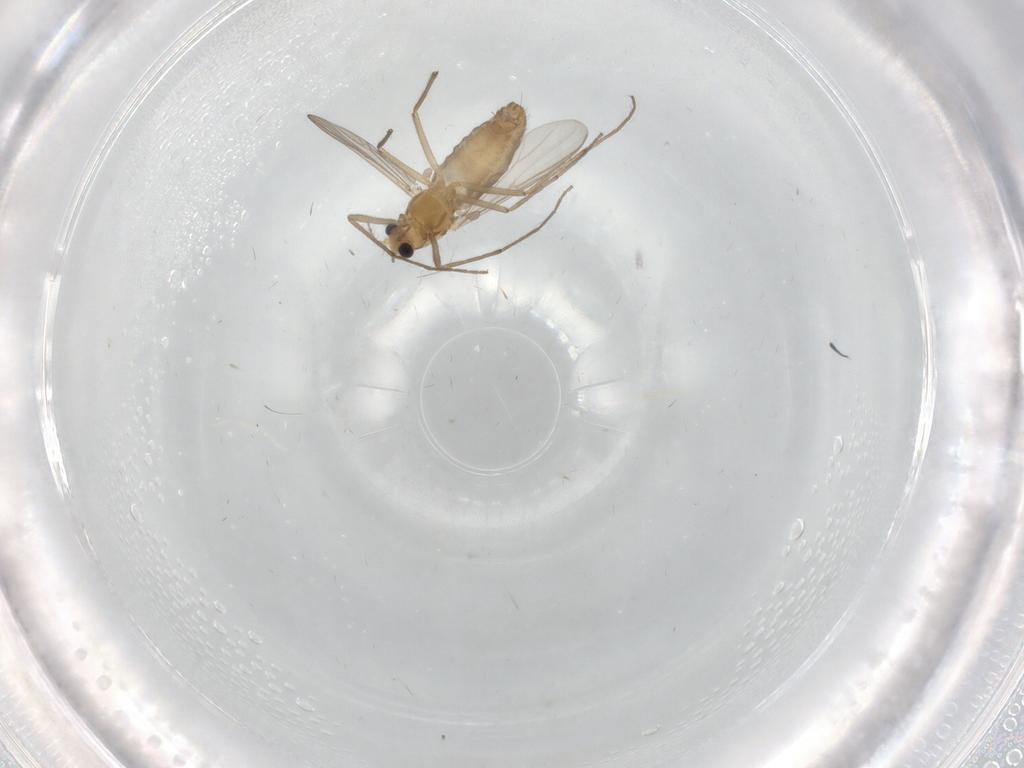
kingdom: Animalia
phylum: Arthropoda
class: Insecta
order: Diptera
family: Chironomidae
